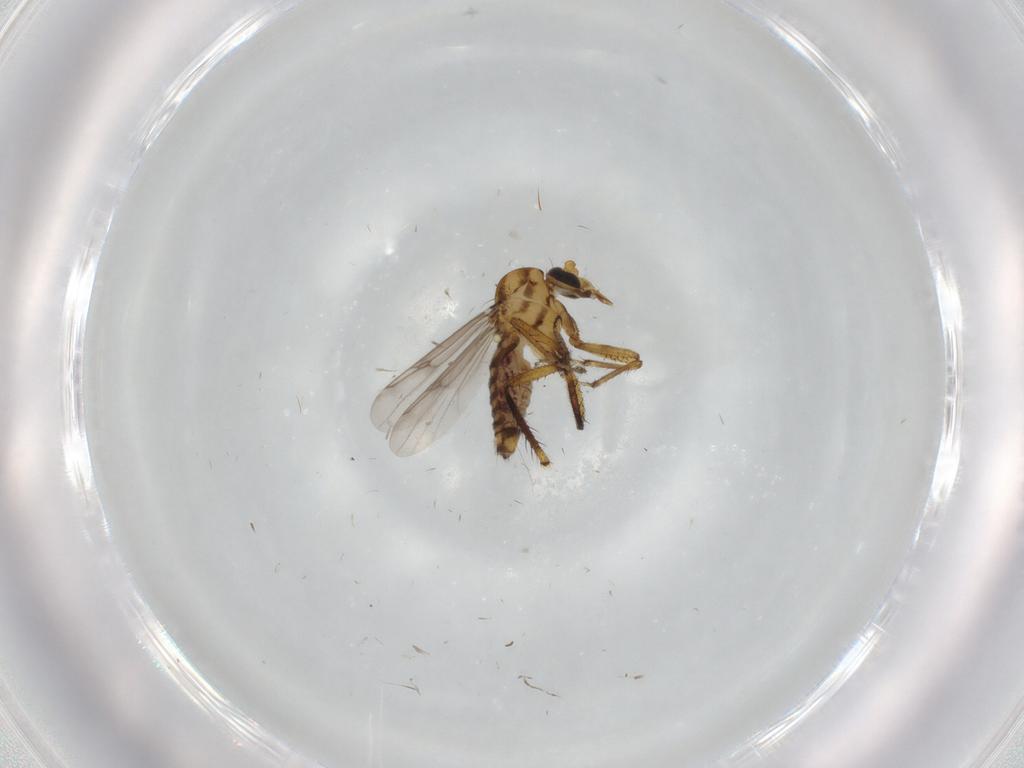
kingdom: Animalia
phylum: Arthropoda
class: Insecta
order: Diptera
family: Ceratopogonidae
